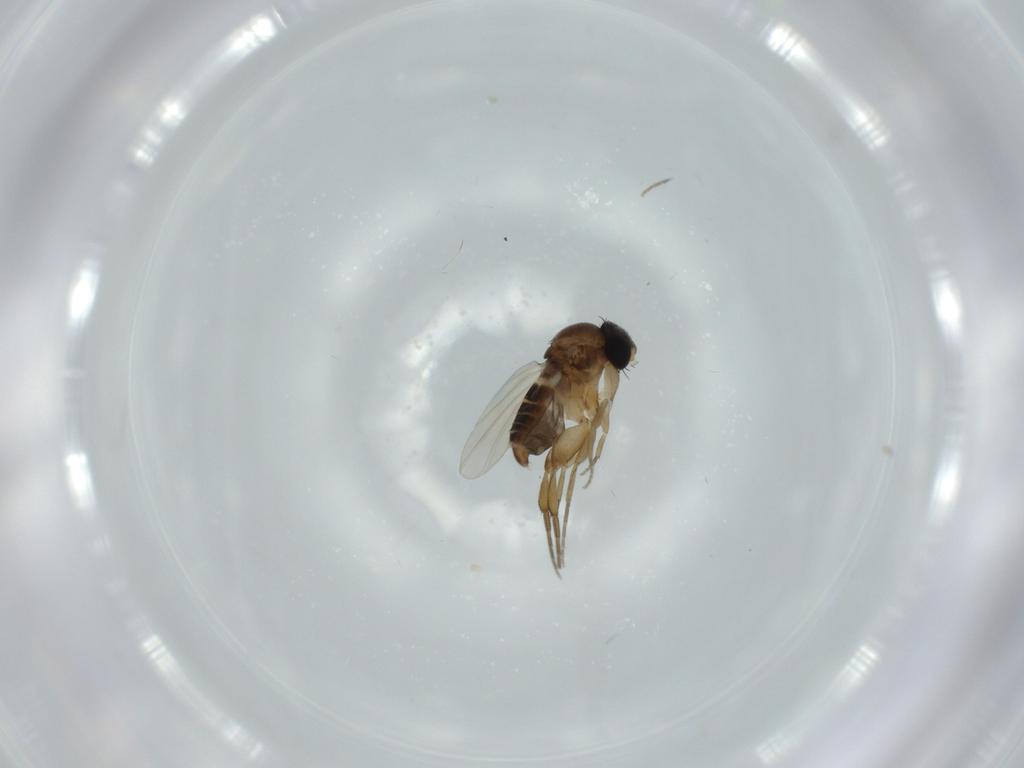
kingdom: Animalia
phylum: Arthropoda
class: Insecta
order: Diptera
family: Phoridae
